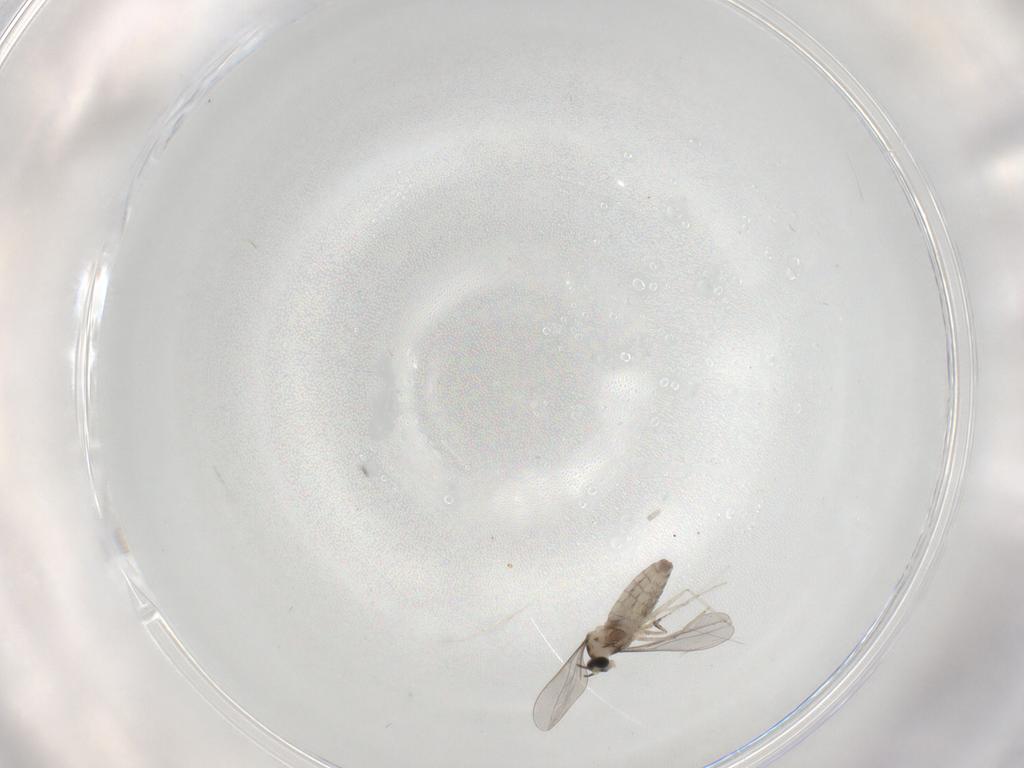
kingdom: Animalia
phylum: Arthropoda
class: Insecta
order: Diptera
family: Cecidomyiidae
